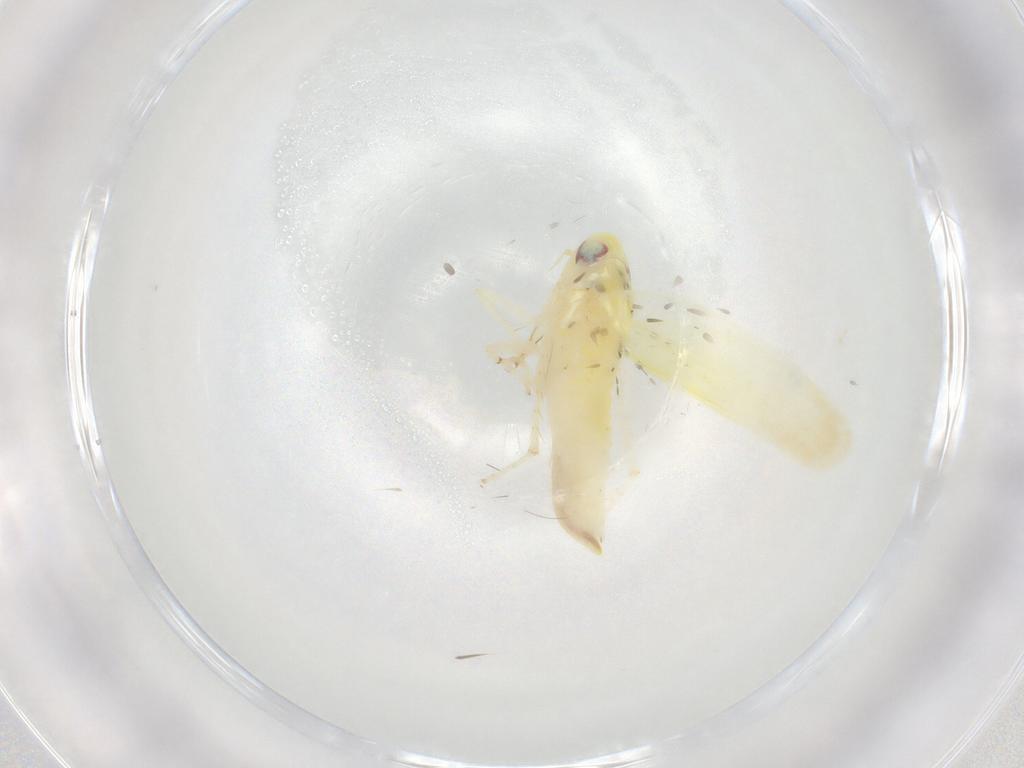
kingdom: Animalia
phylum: Arthropoda
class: Insecta
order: Hemiptera
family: Cicadellidae
